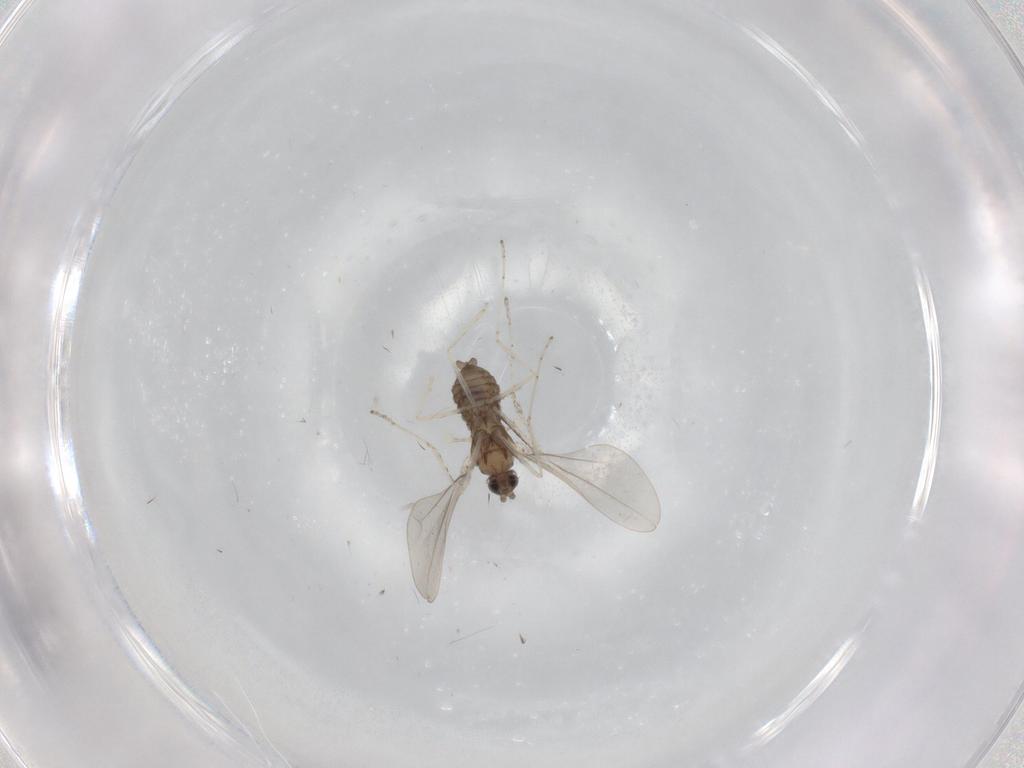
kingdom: Animalia
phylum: Arthropoda
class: Insecta
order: Diptera
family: Cecidomyiidae
